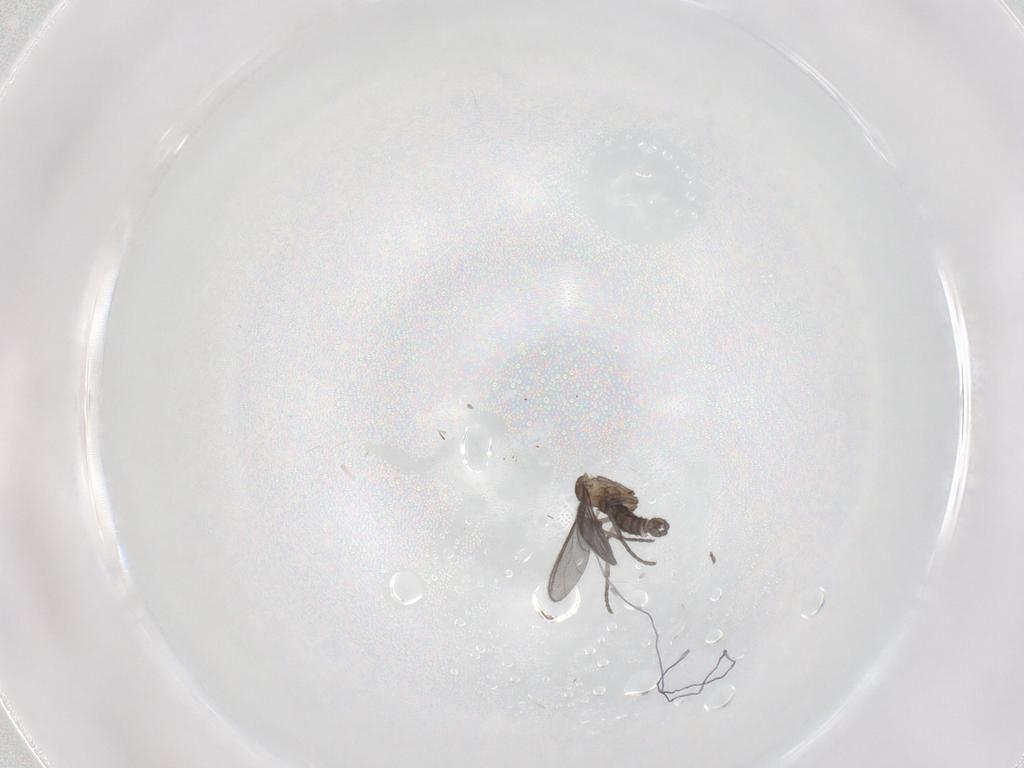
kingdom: Animalia
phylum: Arthropoda
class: Insecta
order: Diptera
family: Sciaridae
